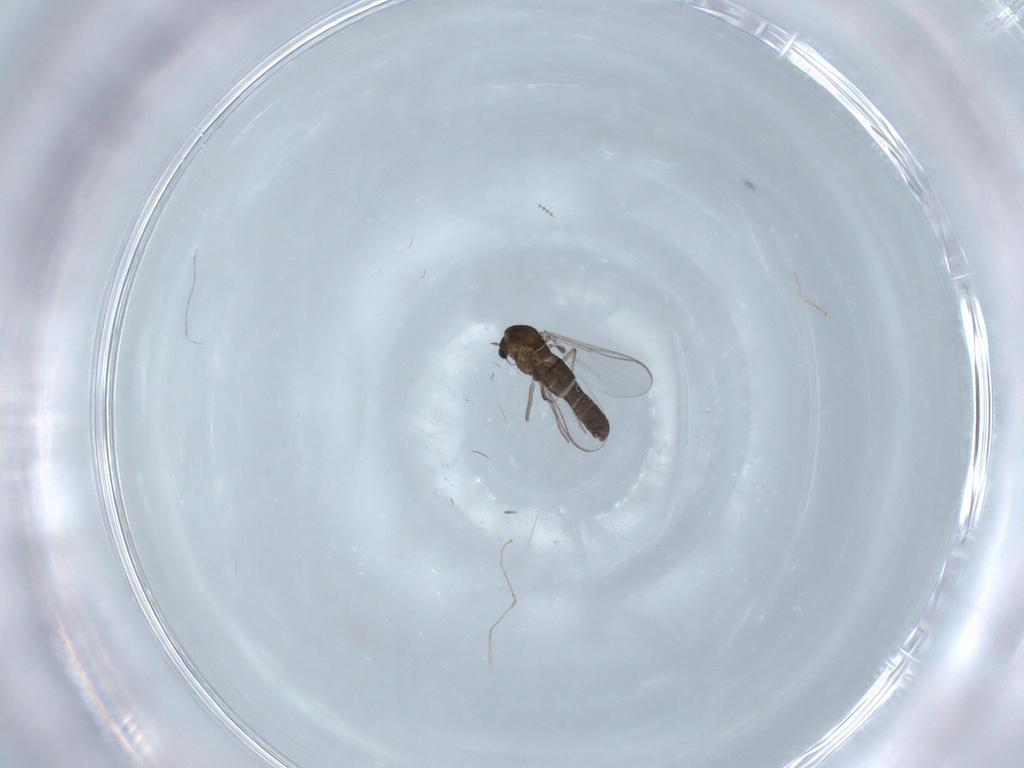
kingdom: Animalia
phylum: Arthropoda
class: Insecta
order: Diptera
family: Chironomidae
